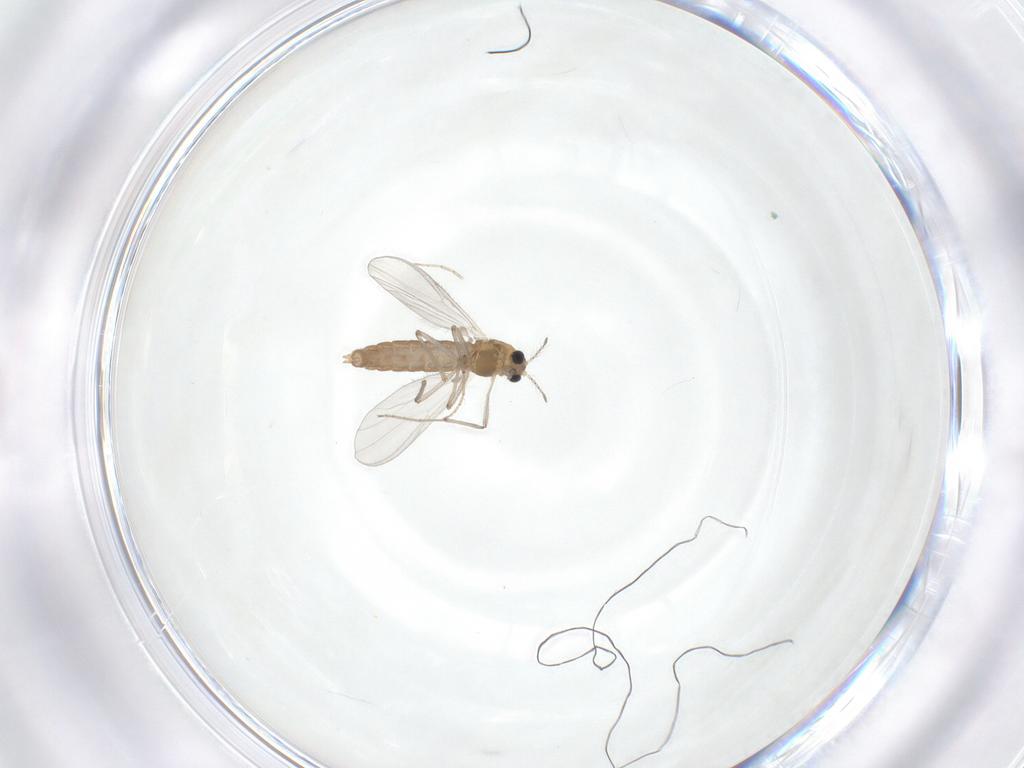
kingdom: Animalia
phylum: Arthropoda
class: Insecta
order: Diptera
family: Chironomidae
